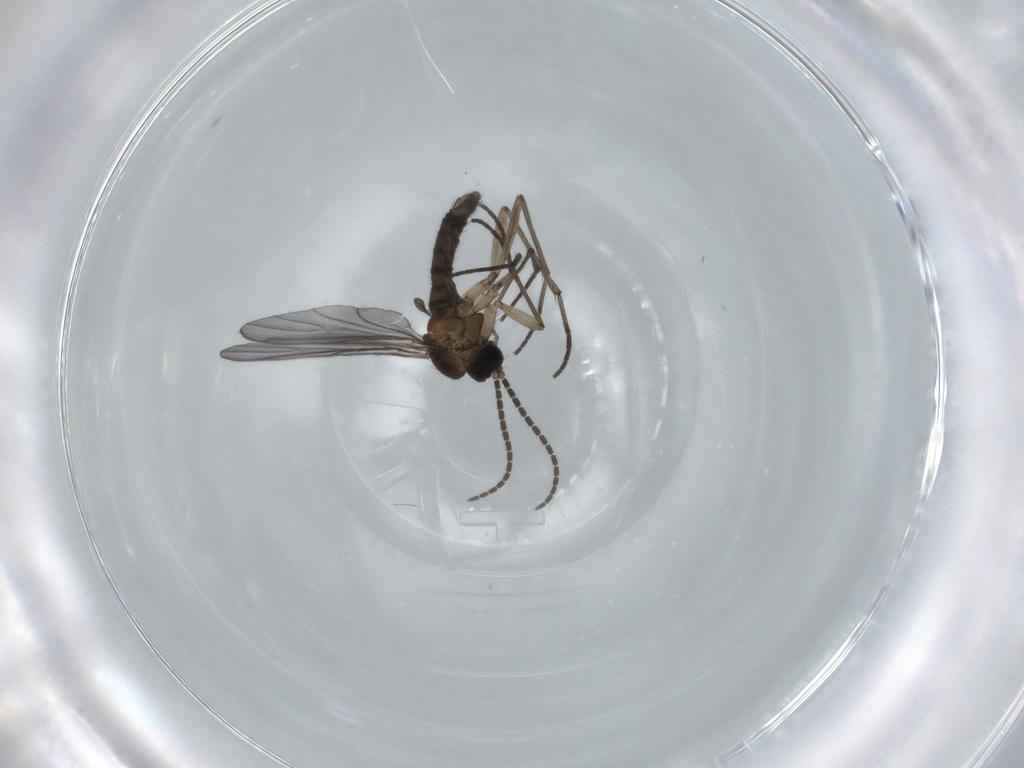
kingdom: Animalia
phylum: Arthropoda
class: Insecta
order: Diptera
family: Sciaridae
